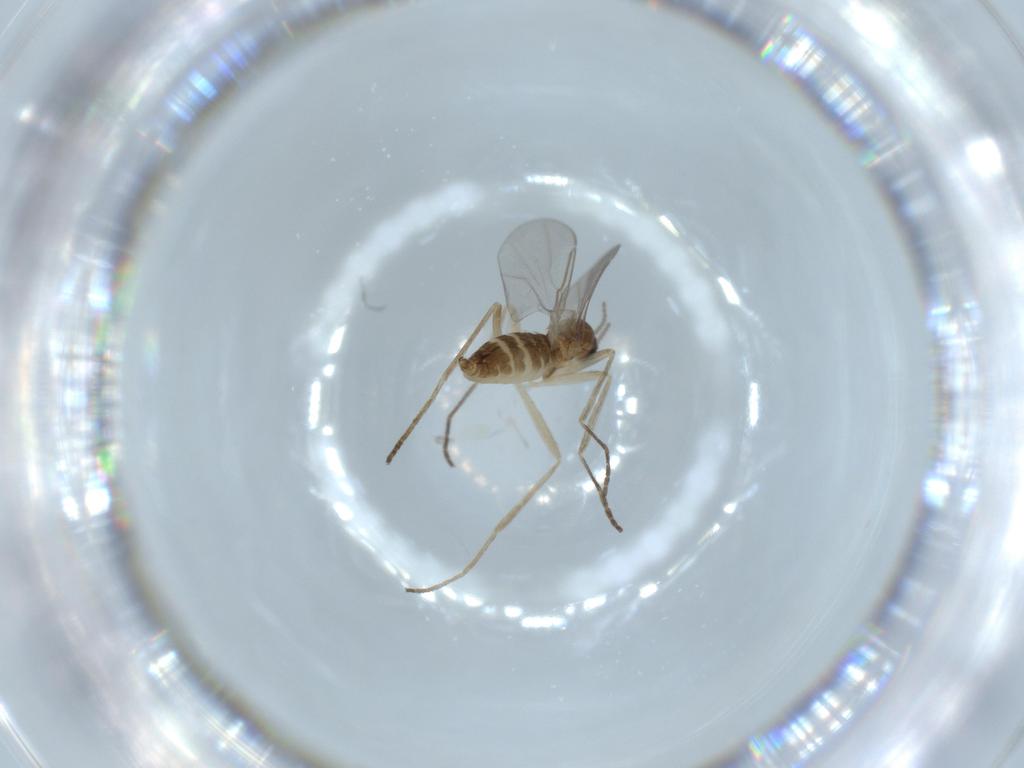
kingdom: Animalia
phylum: Arthropoda
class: Insecta
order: Diptera
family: Cecidomyiidae
